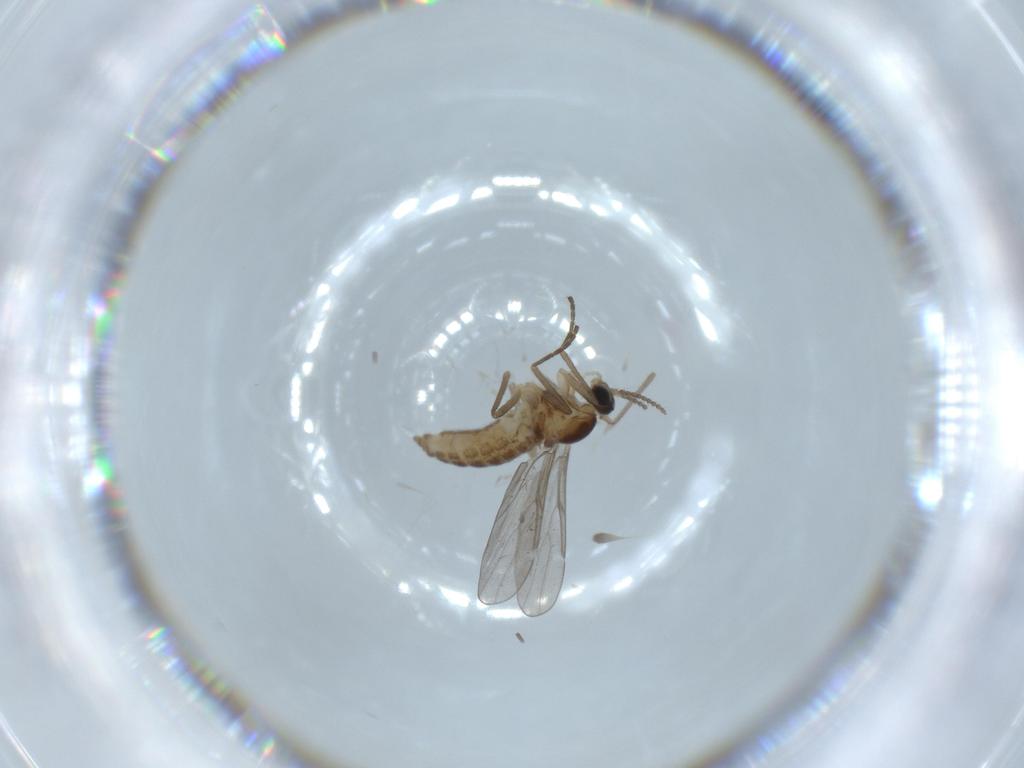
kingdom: Animalia
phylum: Arthropoda
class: Insecta
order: Diptera
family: Cecidomyiidae
